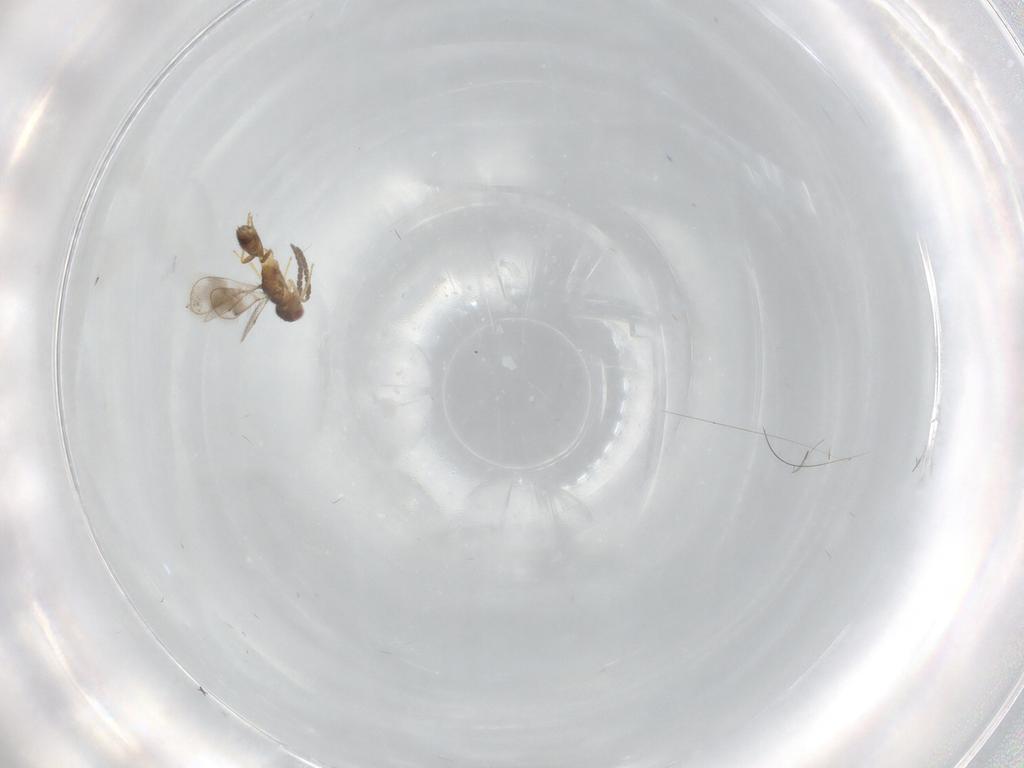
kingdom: Animalia
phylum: Arthropoda
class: Insecta
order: Hymenoptera
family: Pteromalidae
